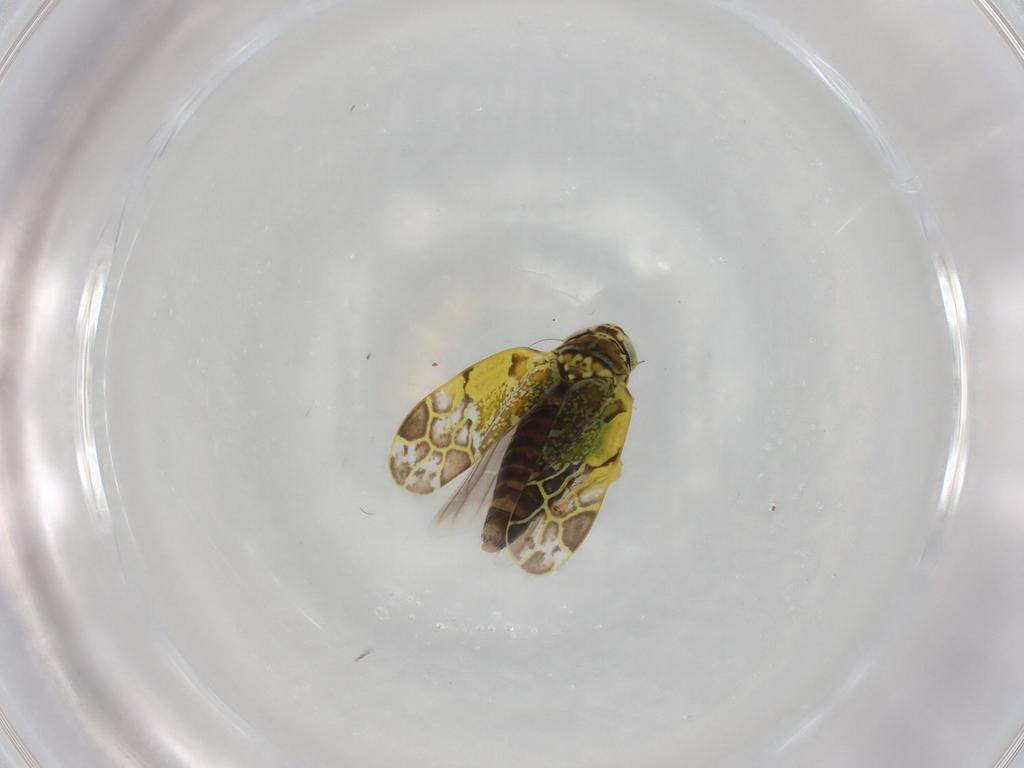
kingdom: Animalia
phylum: Arthropoda
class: Insecta
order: Hemiptera
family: Cicadellidae
